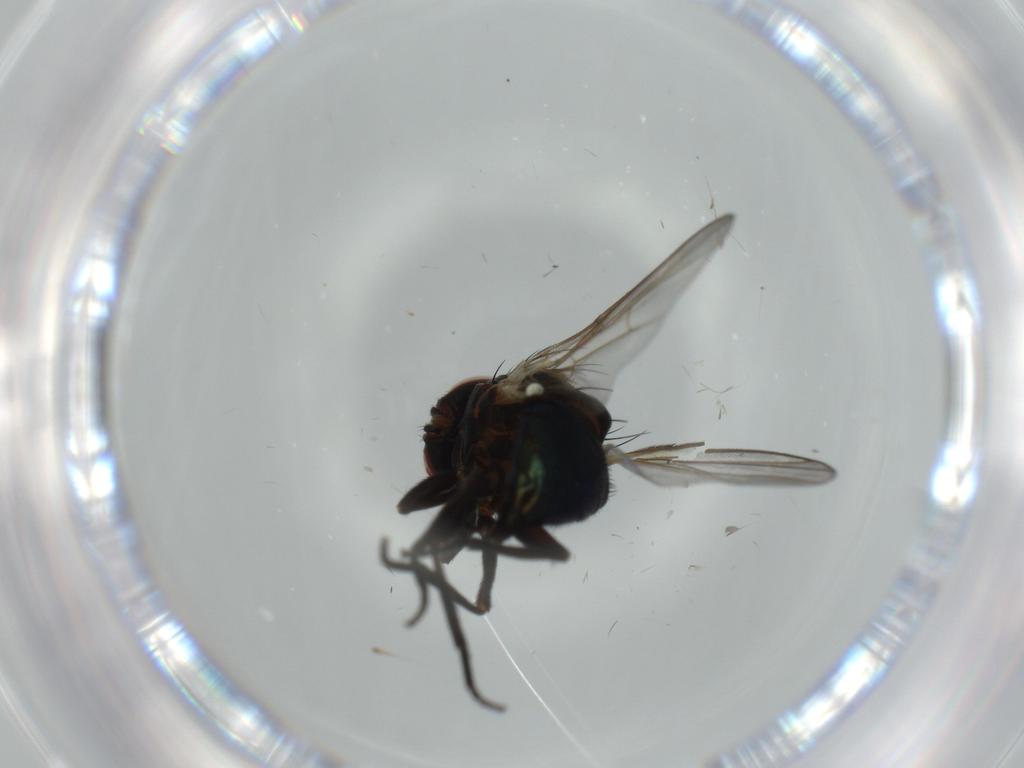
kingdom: Animalia
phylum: Arthropoda
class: Insecta
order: Diptera
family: Agromyzidae
